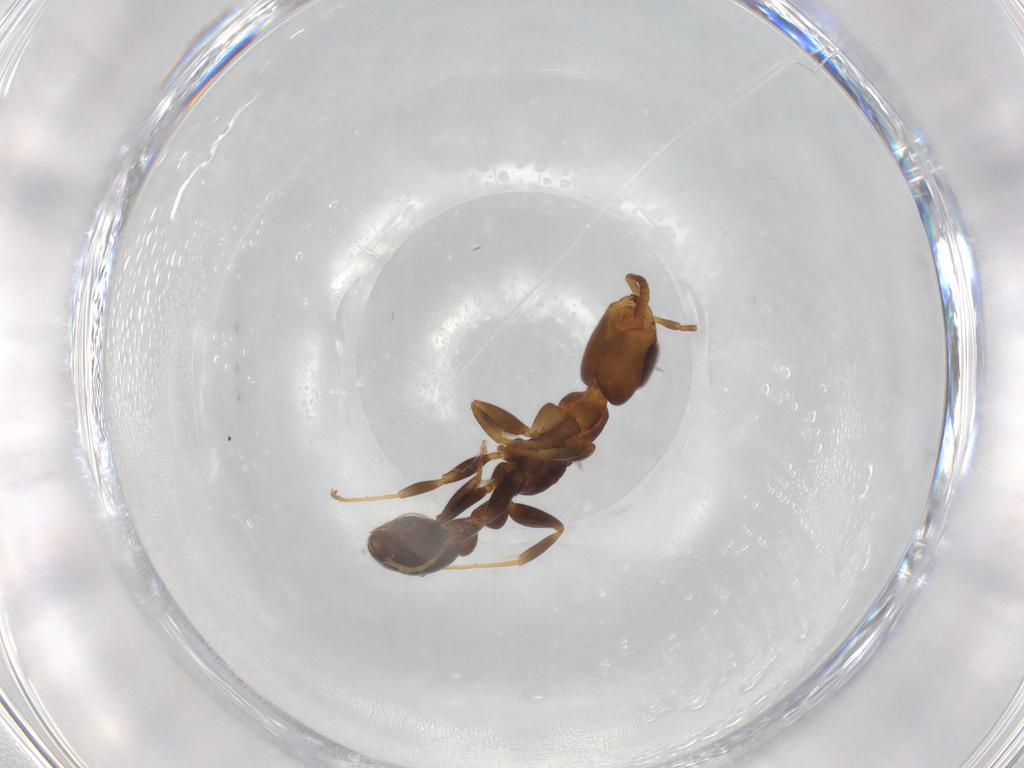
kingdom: Animalia
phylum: Arthropoda
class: Insecta
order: Hymenoptera
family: Formicidae
